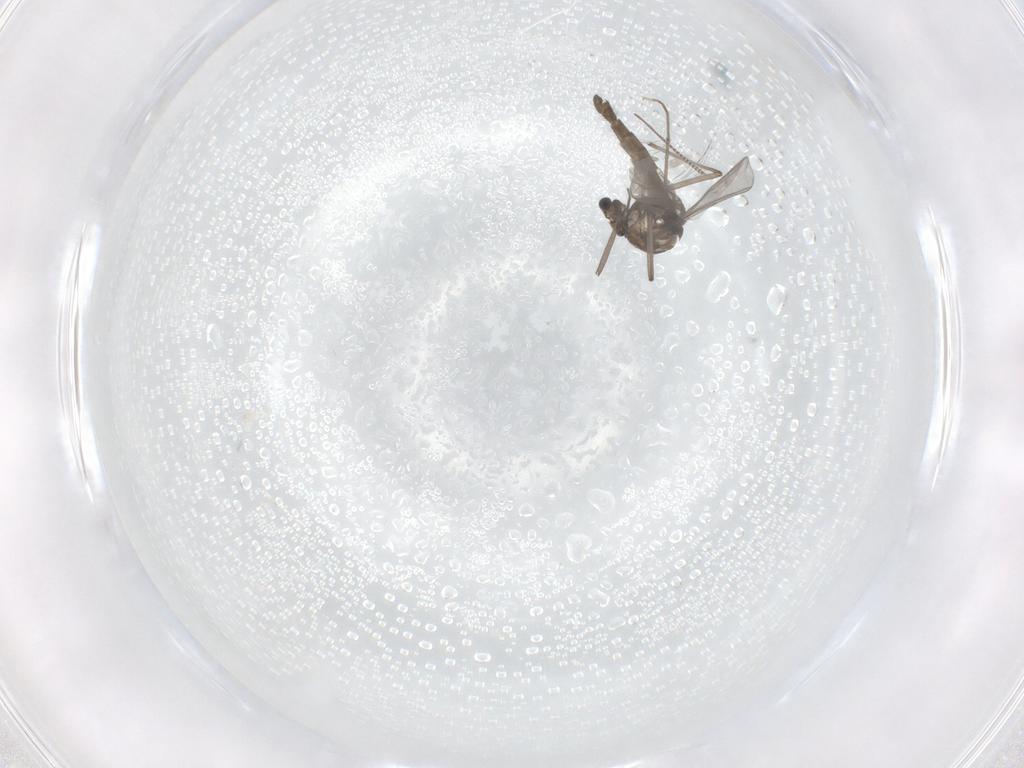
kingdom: Animalia
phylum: Arthropoda
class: Insecta
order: Diptera
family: Chironomidae
